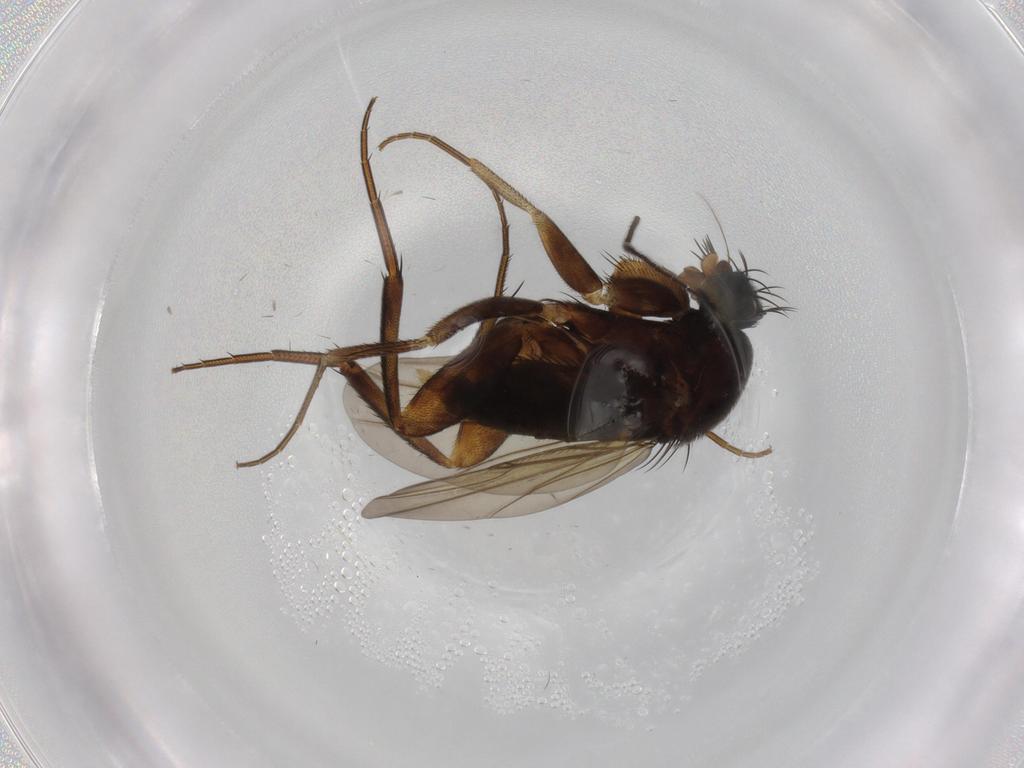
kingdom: Animalia
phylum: Arthropoda
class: Insecta
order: Diptera
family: Phoridae
